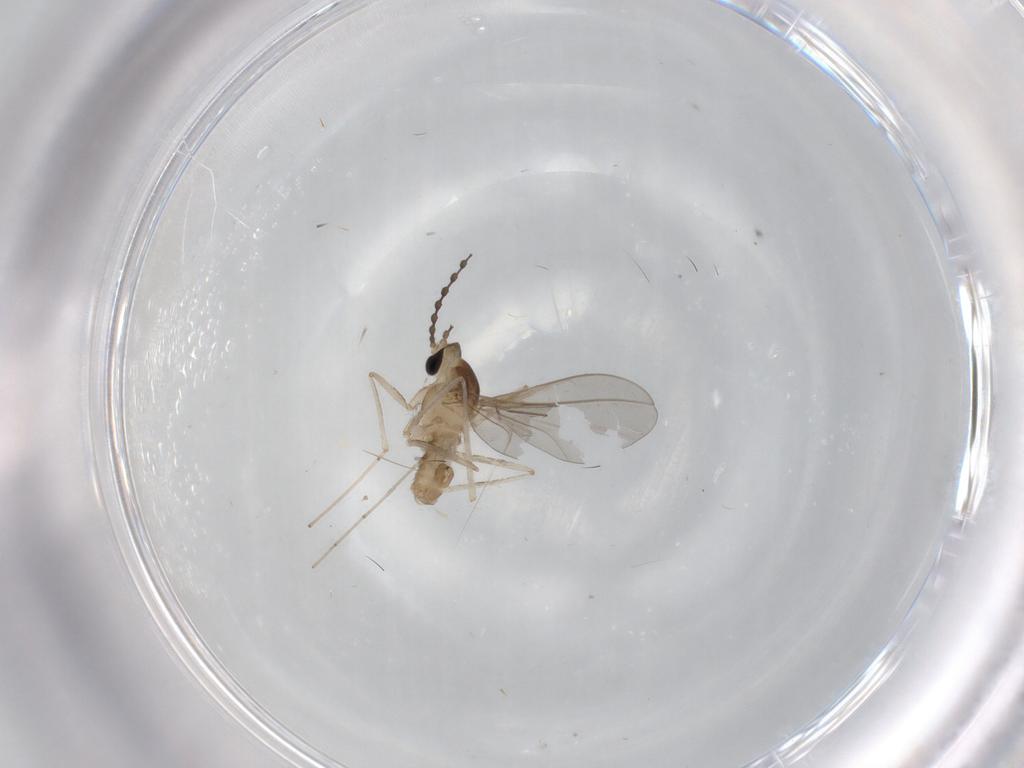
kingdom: Animalia
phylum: Arthropoda
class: Insecta
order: Diptera
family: Cecidomyiidae
